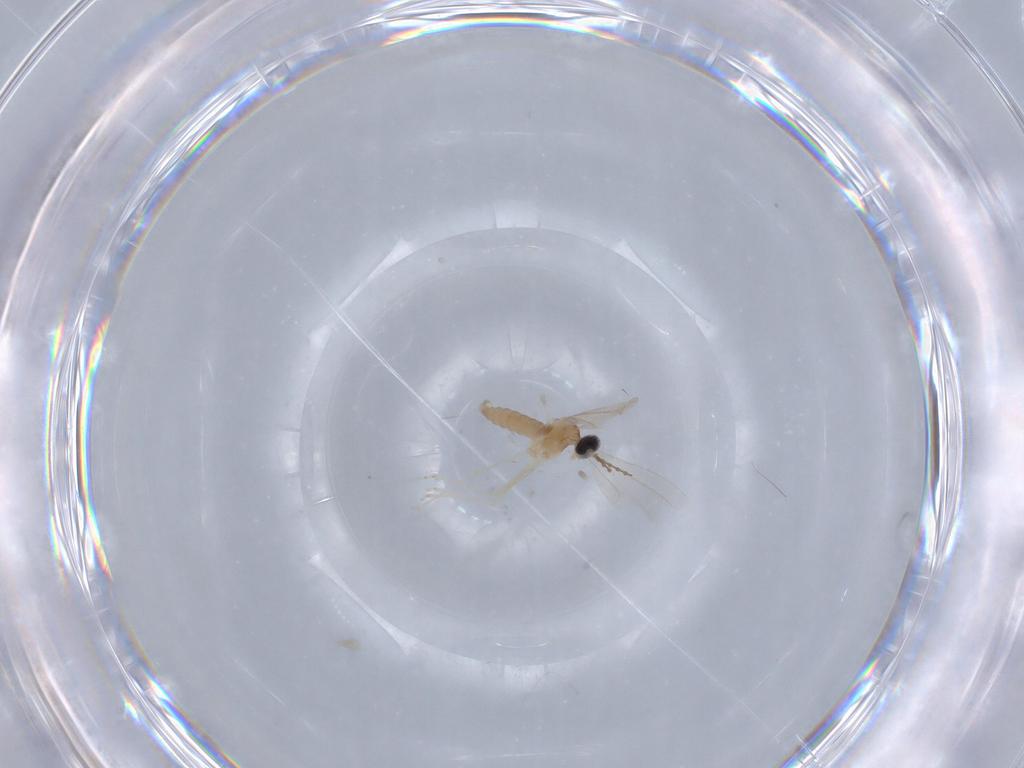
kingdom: Animalia
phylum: Arthropoda
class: Insecta
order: Diptera
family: Cecidomyiidae
